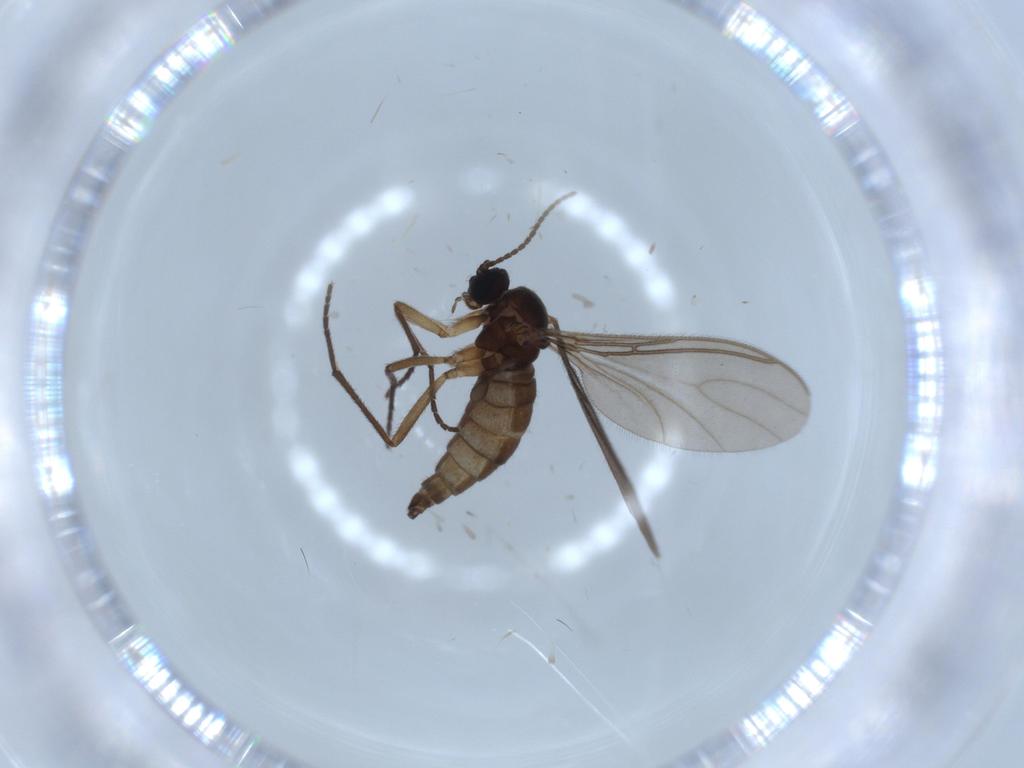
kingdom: Animalia
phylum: Arthropoda
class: Insecta
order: Diptera
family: Sciaridae
